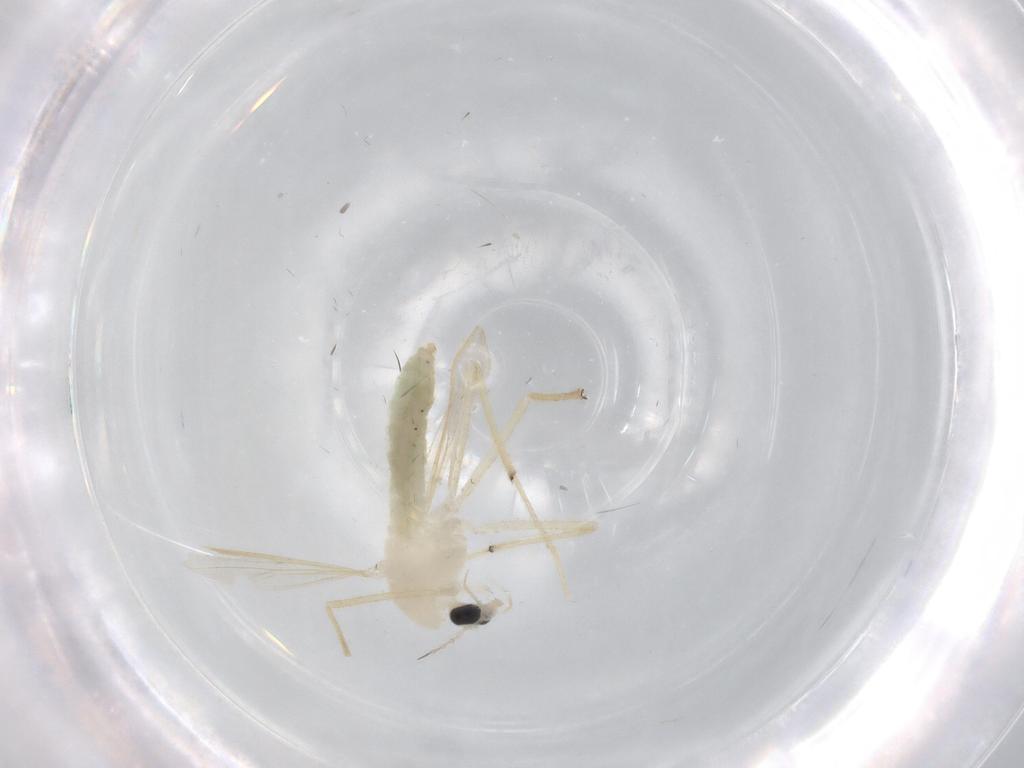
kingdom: Animalia
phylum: Arthropoda
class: Insecta
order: Diptera
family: Chironomidae
